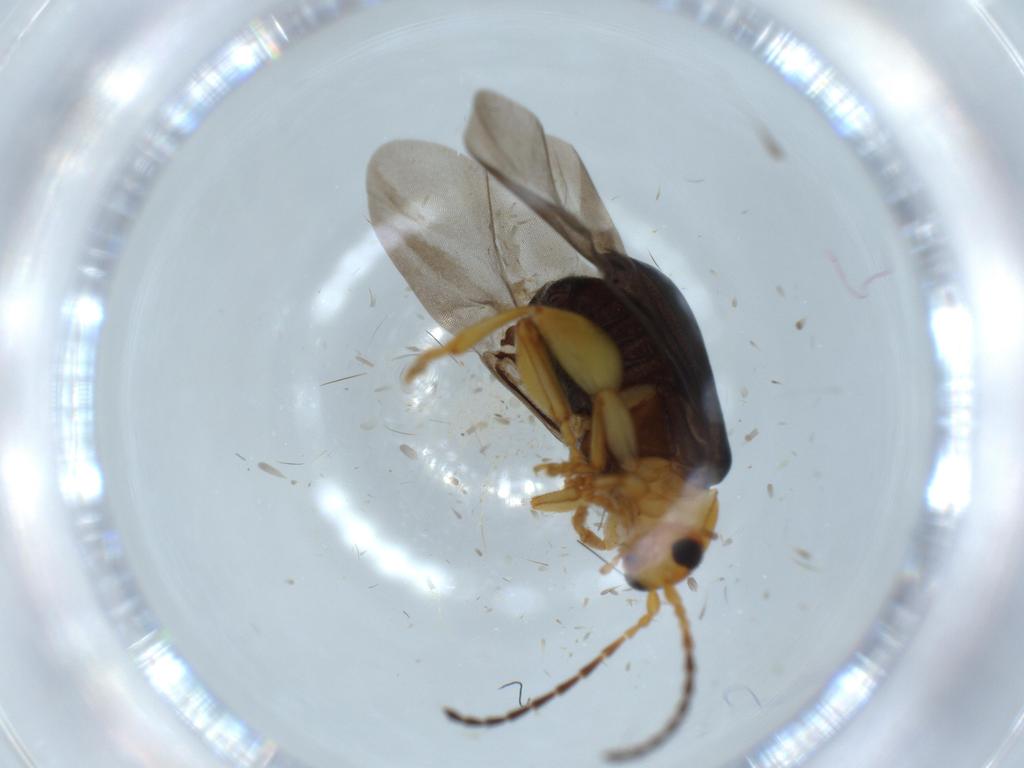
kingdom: Animalia
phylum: Arthropoda
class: Insecta
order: Coleoptera
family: Chrysomelidae
